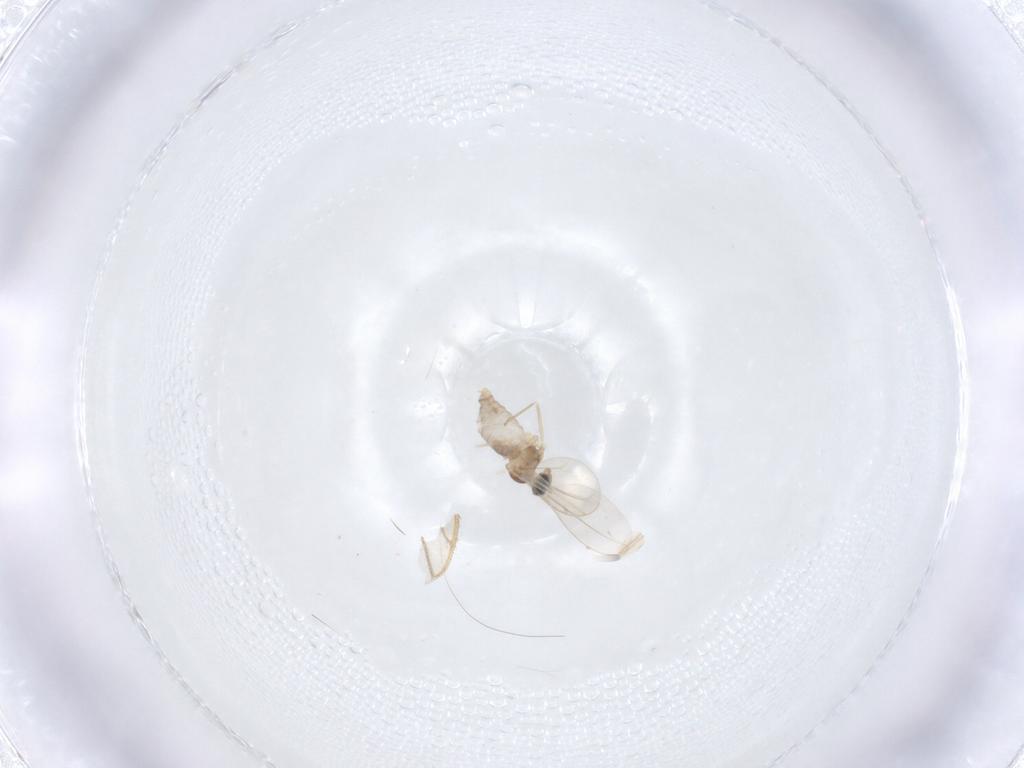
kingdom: Animalia
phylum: Arthropoda
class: Insecta
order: Diptera
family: Cecidomyiidae
